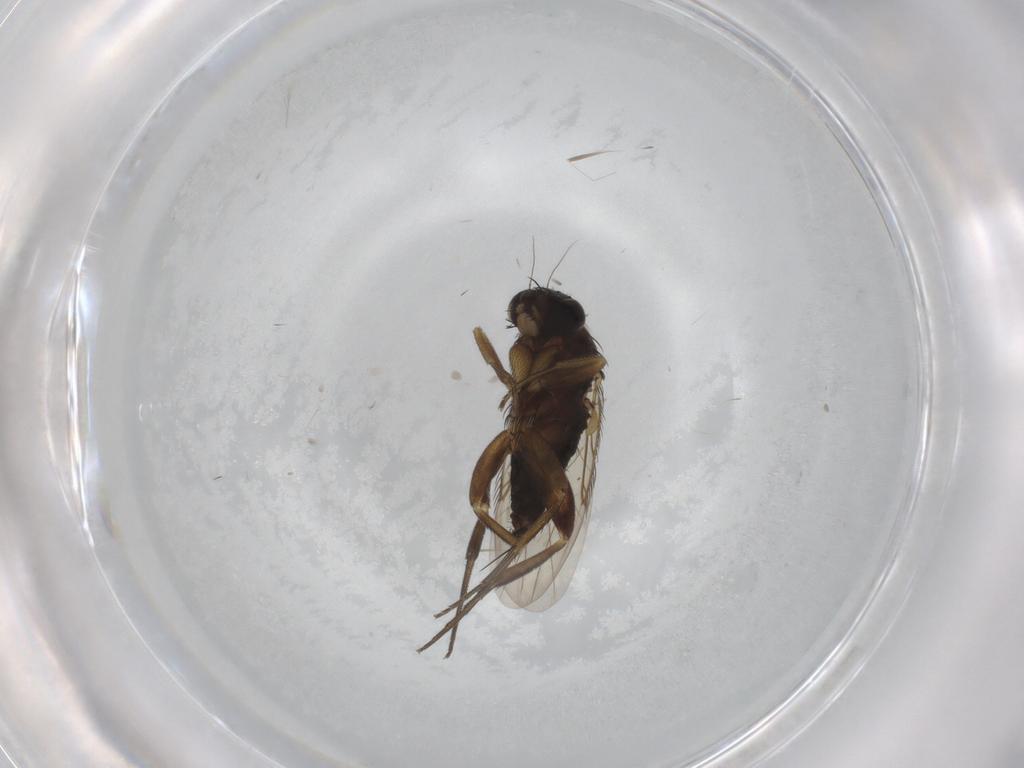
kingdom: Animalia
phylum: Arthropoda
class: Insecta
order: Diptera
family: Phoridae
